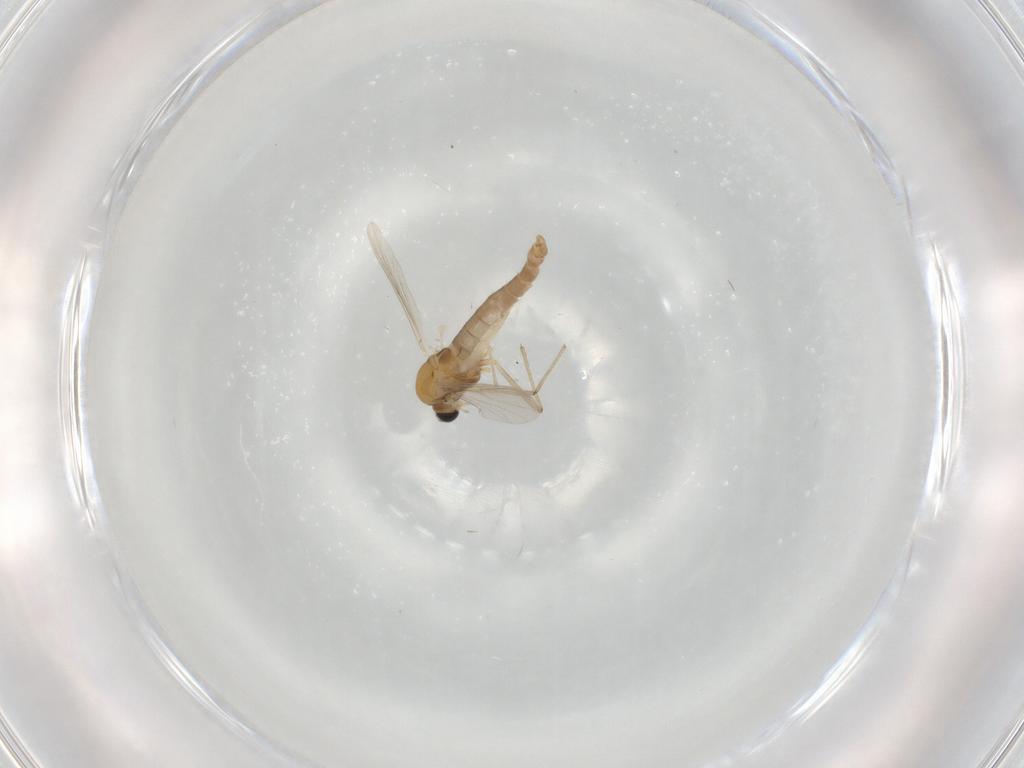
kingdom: Animalia
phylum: Arthropoda
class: Insecta
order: Diptera
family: Chironomidae
